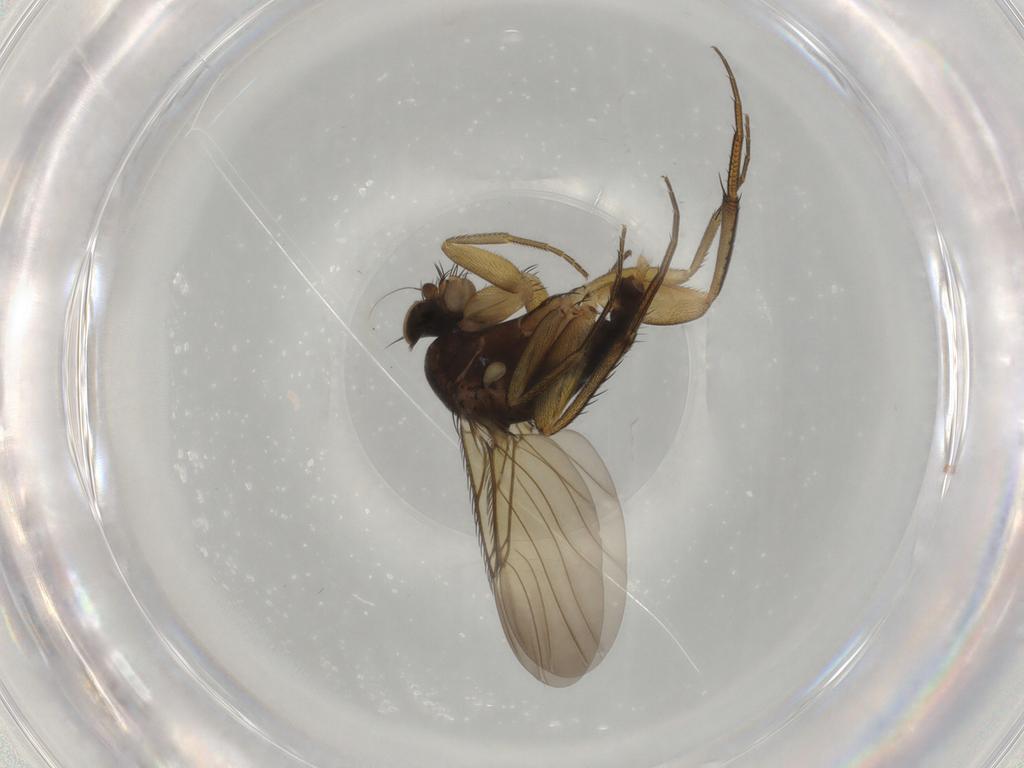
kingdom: Animalia
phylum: Arthropoda
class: Insecta
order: Diptera
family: Phoridae
